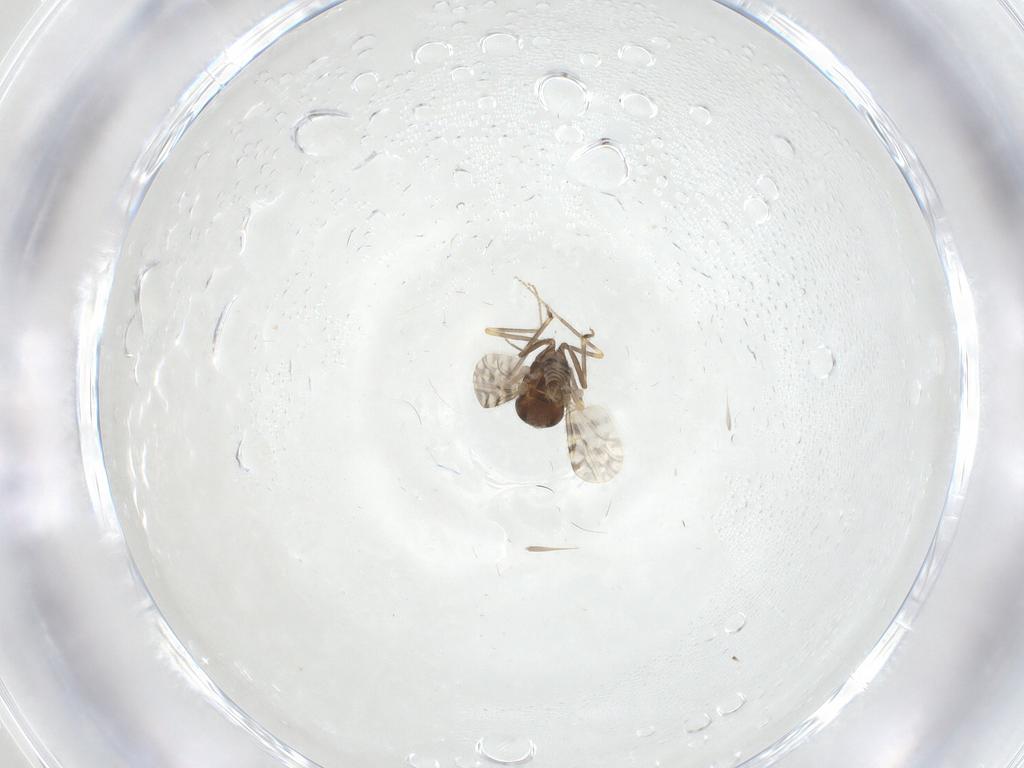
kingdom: Animalia
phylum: Arthropoda
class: Insecta
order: Diptera
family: Ceratopogonidae
